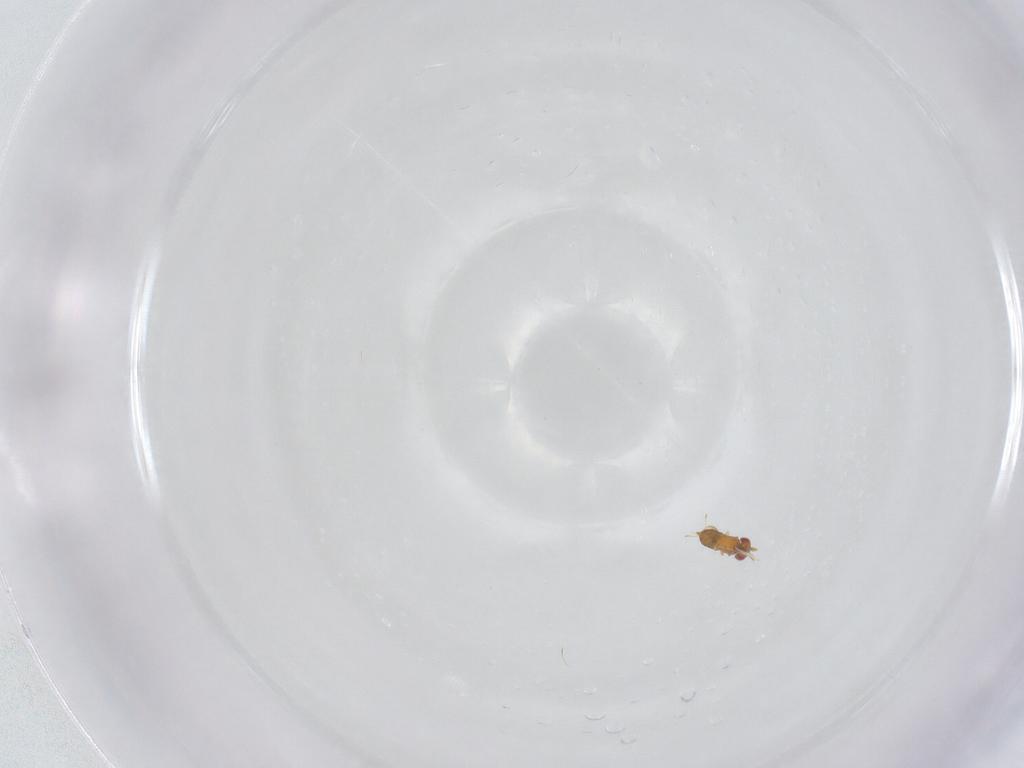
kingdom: Animalia
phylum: Arthropoda
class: Insecta
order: Hymenoptera
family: Trichogrammatidae
